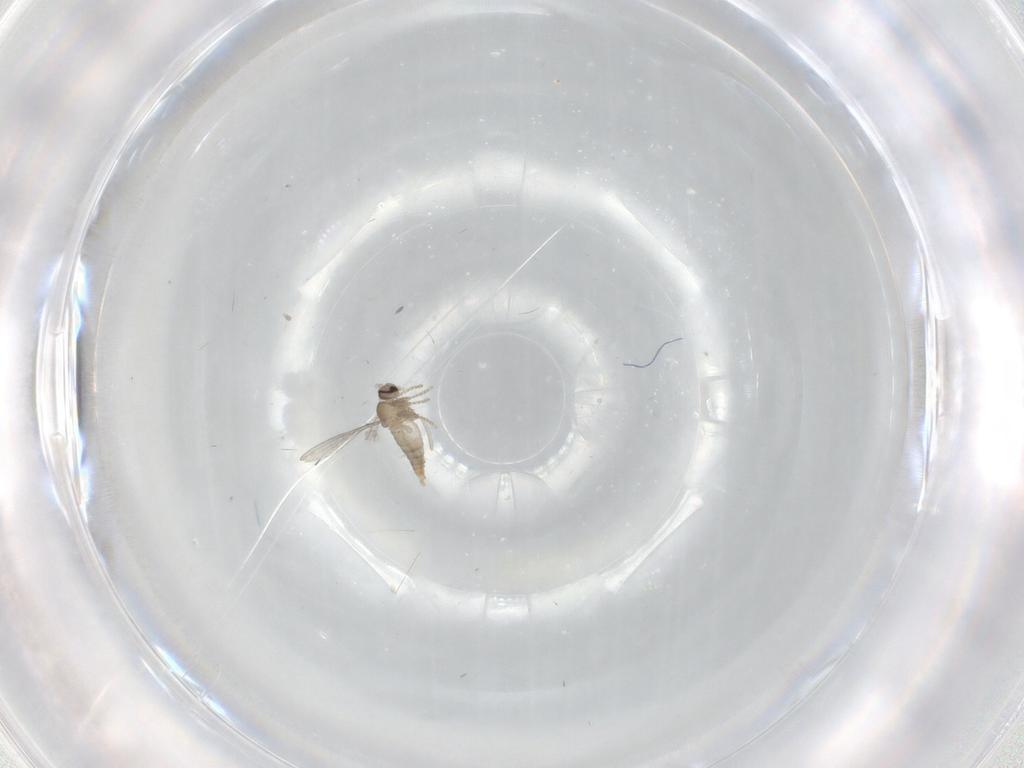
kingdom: Animalia
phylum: Arthropoda
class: Insecta
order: Diptera
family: Cecidomyiidae
